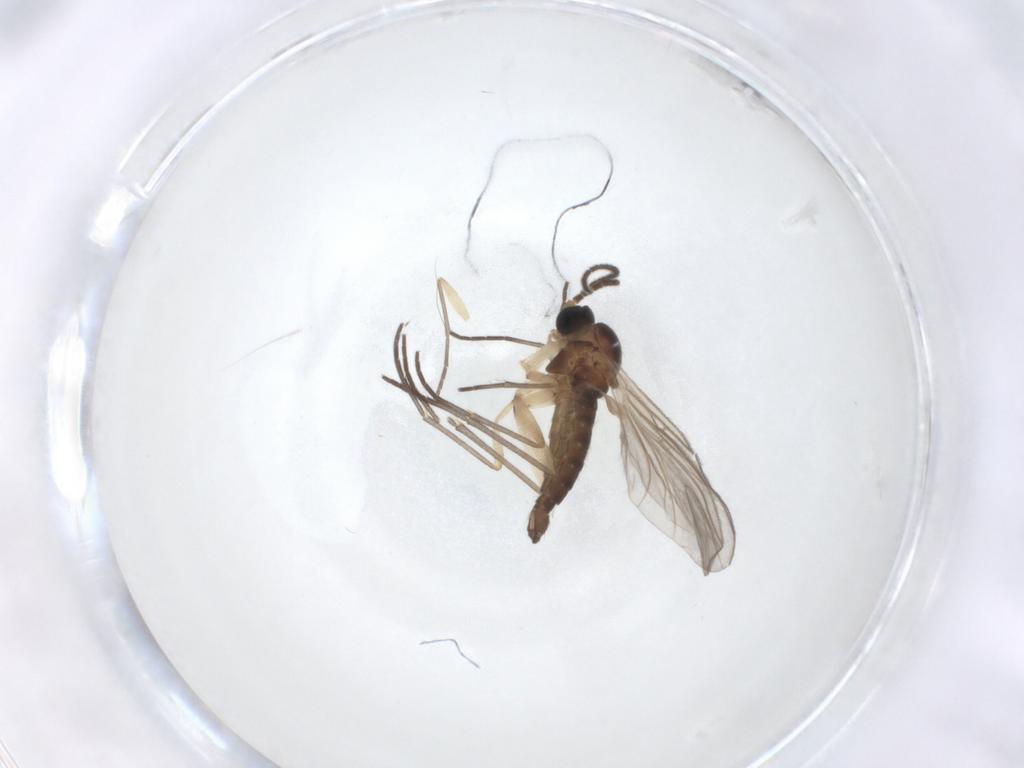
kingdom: Animalia
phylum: Arthropoda
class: Insecta
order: Diptera
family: Sciaridae
